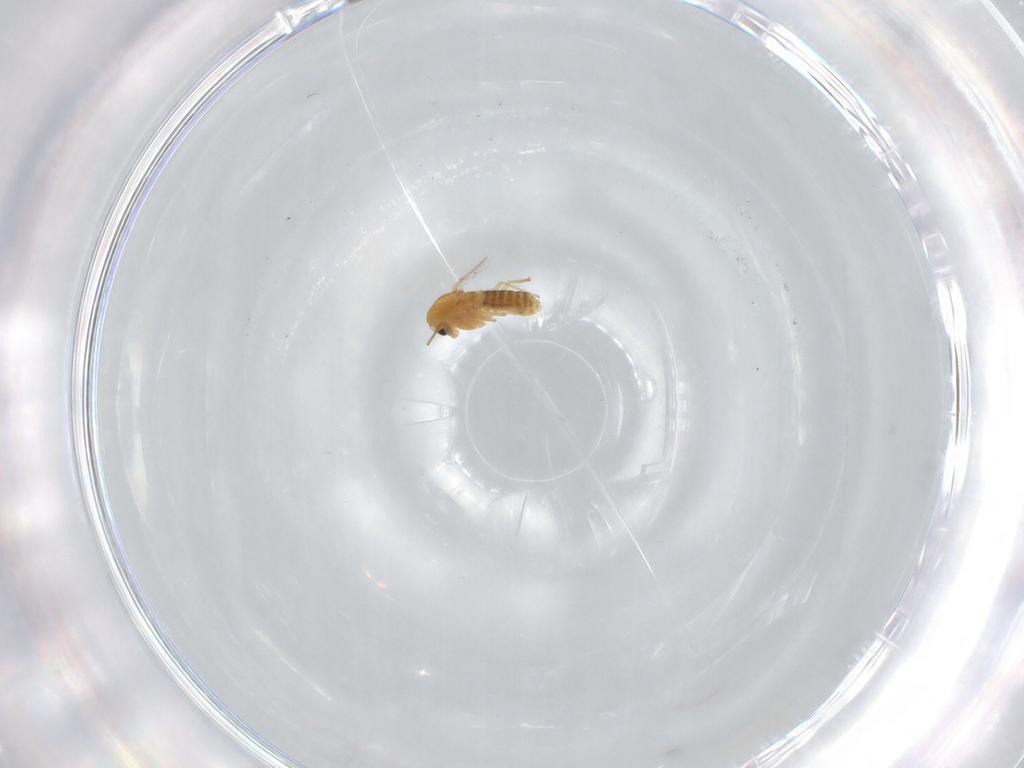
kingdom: Animalia
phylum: Arthropoda
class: Insecta
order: Diptera
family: Chironomidae
